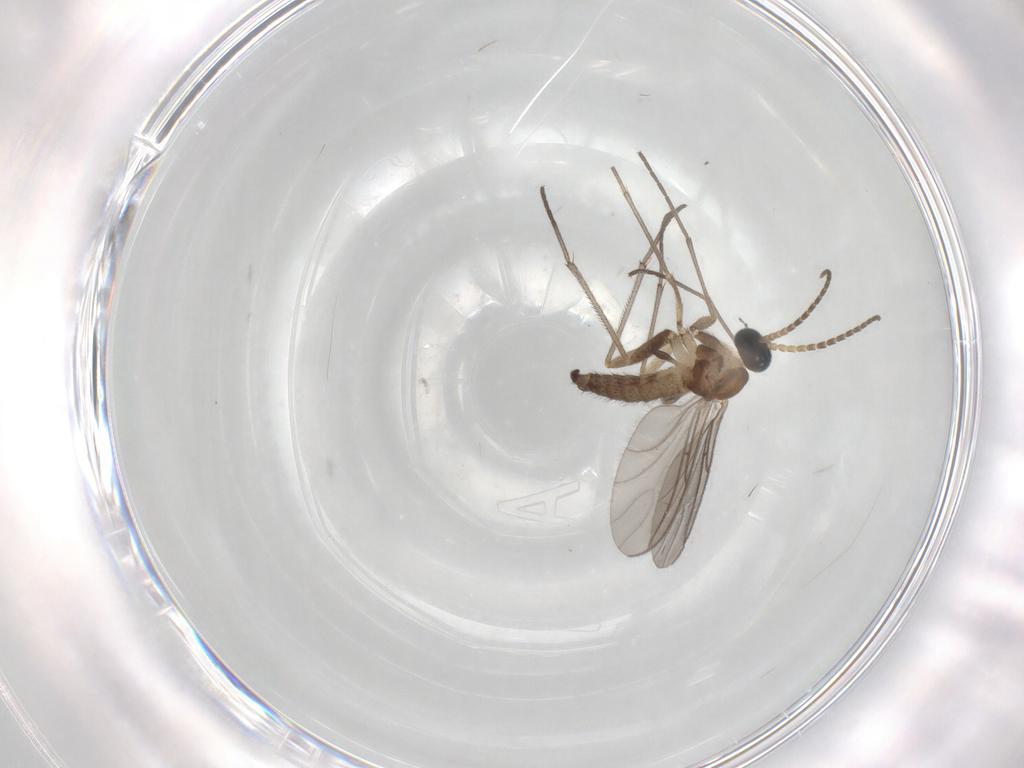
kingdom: Animalia
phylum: Arthropoda
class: Insecta
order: Diptera
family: Sciaridae
